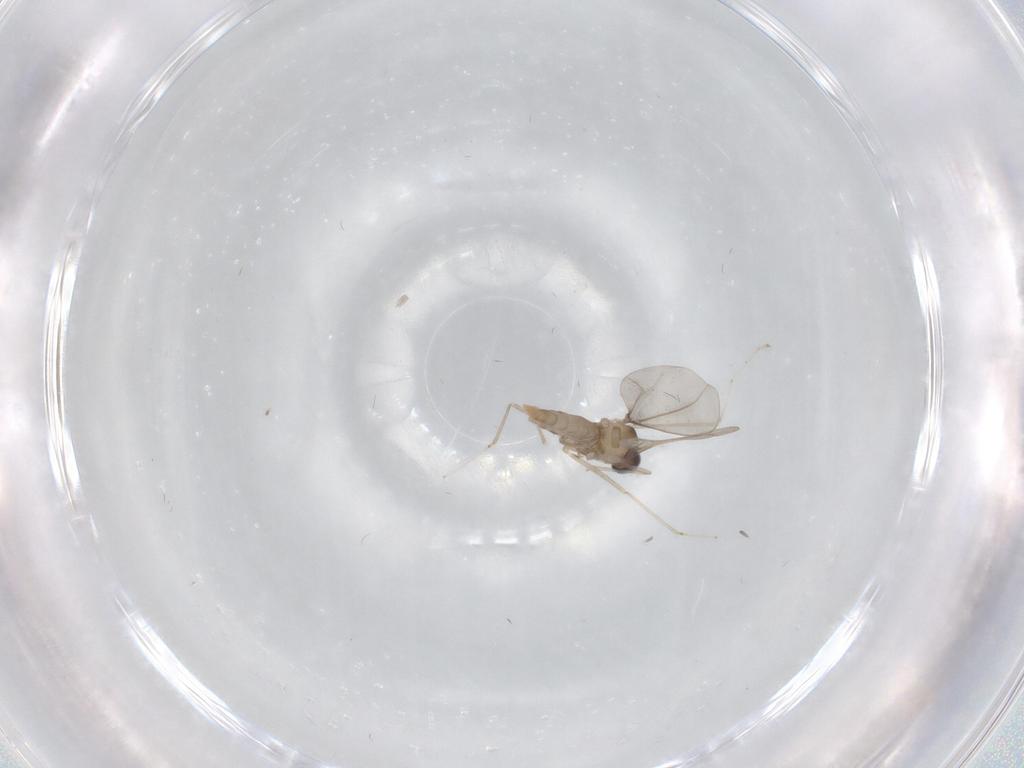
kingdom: Animalia
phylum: Arthropoda
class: Insecta
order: Diptera
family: Cecidomyiidae
